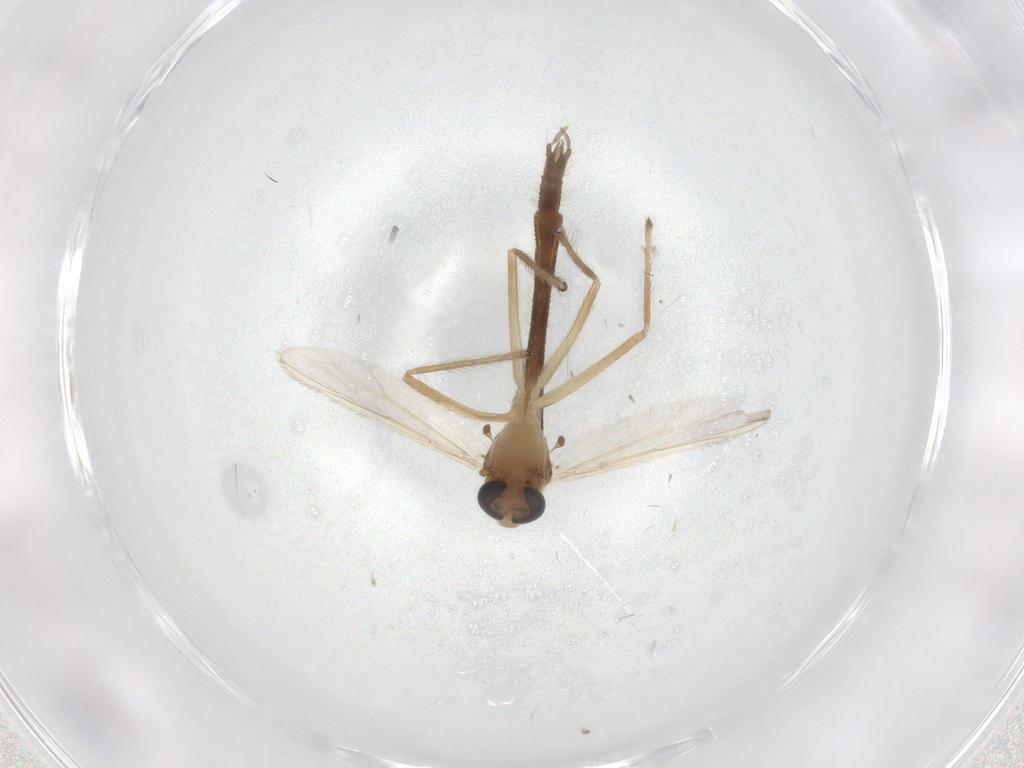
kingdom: Animalia
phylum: Arthropoda
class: Insecta
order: Diptera
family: Chironomidae
